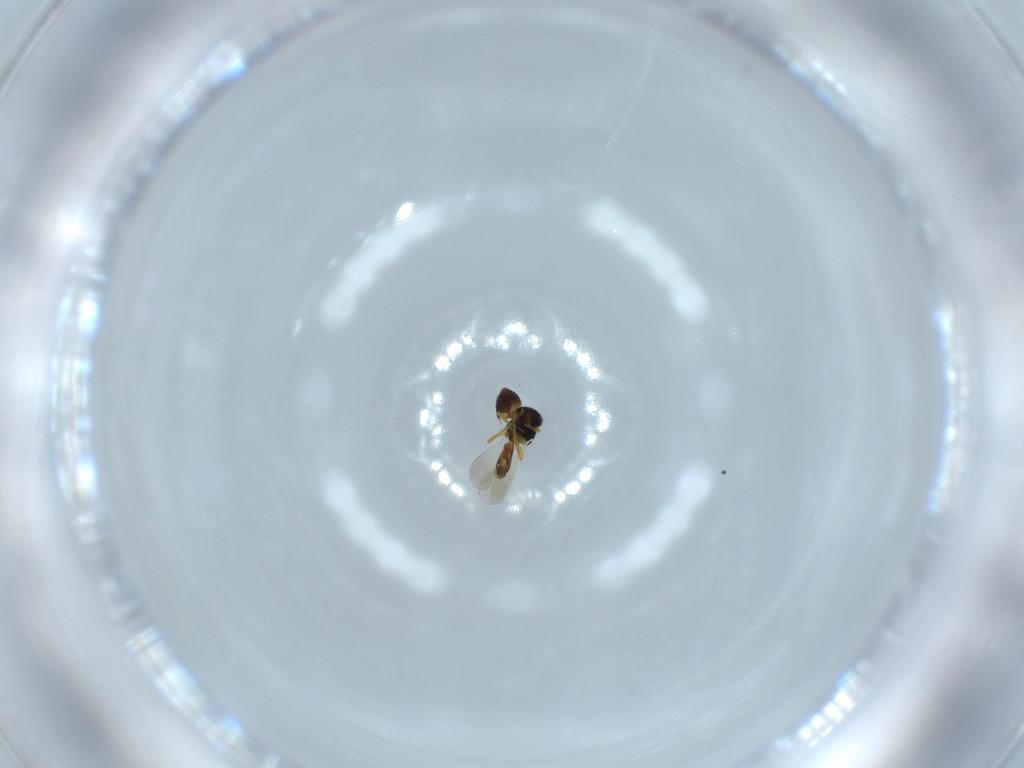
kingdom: Animalia
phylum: Arthropoda
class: Insecta
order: Hymenoptera
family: Platygastridae
